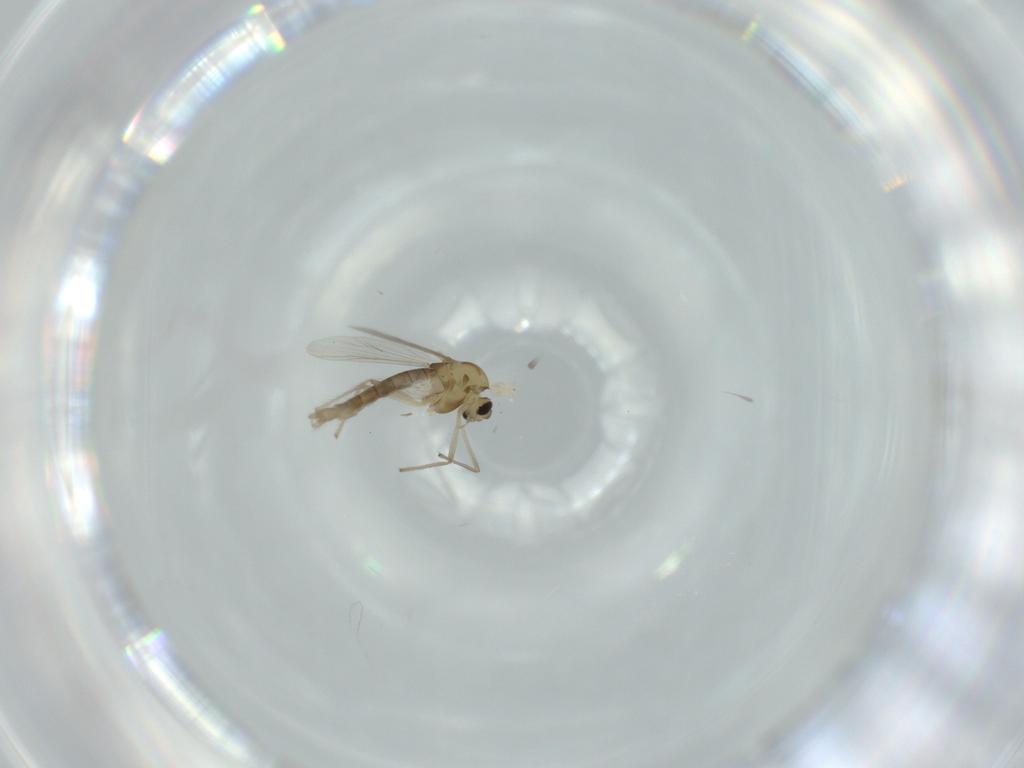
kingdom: Animalia
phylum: Arthropoda
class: Insecta
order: Diptera
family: Chironomidae
